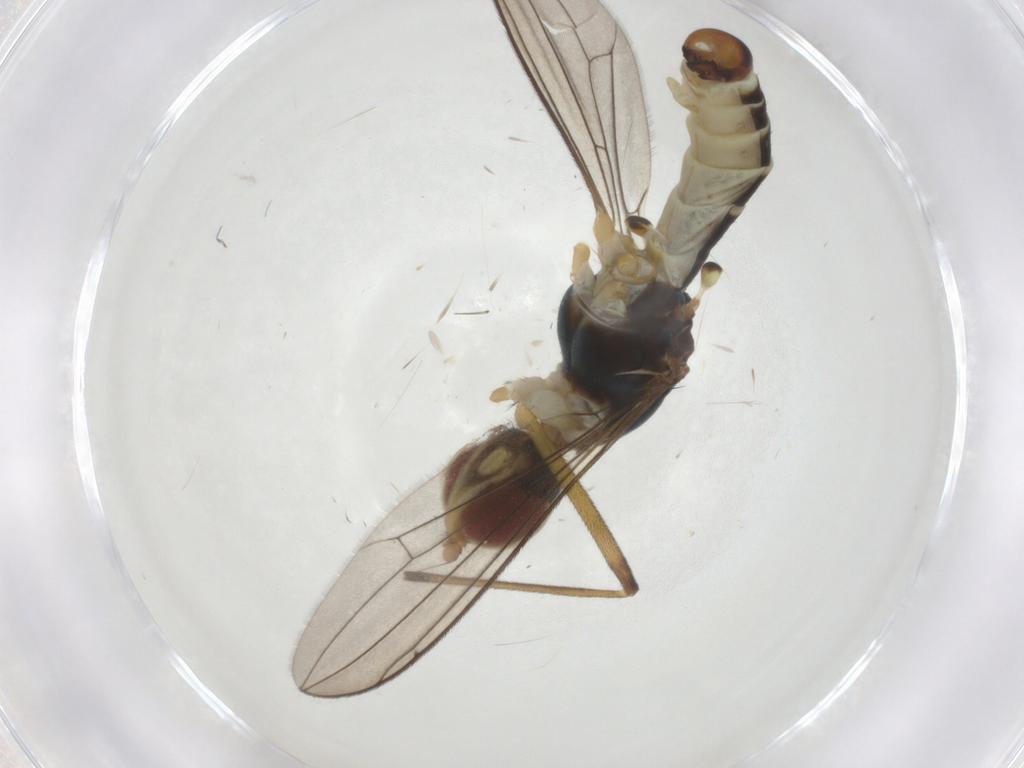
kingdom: Animalia
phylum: Arthropoda
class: Insecta
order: Diptera
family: Micropezidae
